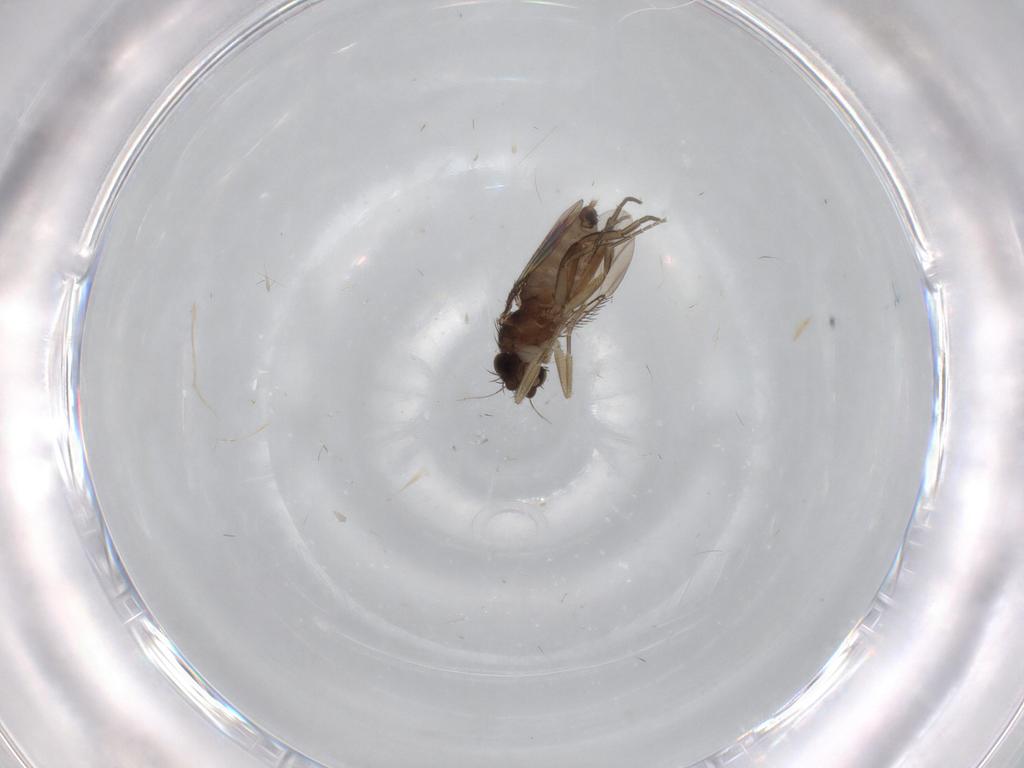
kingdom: Animalia
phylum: Arthropoda
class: Insecta
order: Diptera
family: Phoridae
